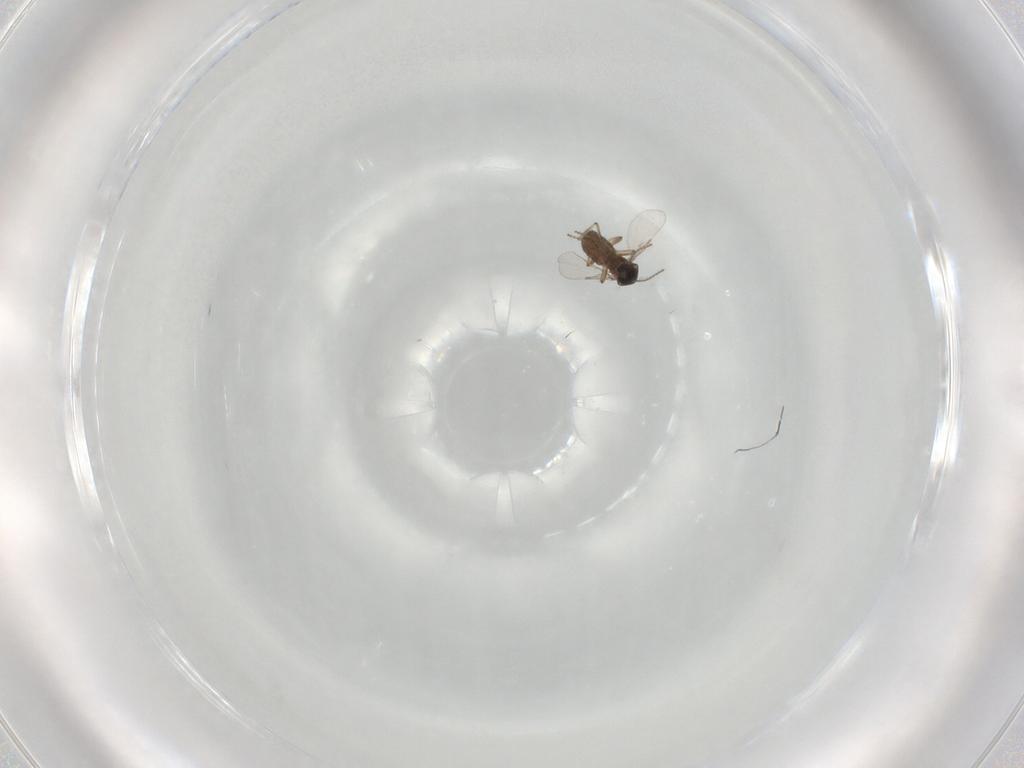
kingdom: Animalia
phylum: Arthropoda
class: Insecta
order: Diptera
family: Ceratopogonidae
